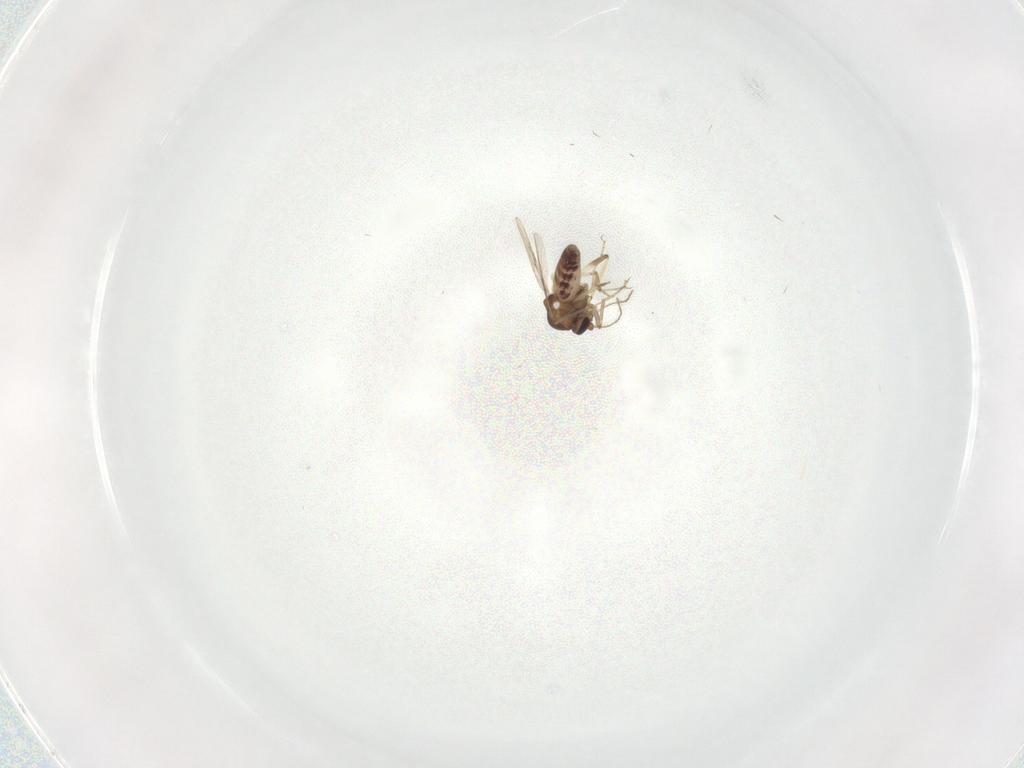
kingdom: Animalia
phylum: Arthropoda
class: Insecta
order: Diptera
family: Ceratopogonidae
